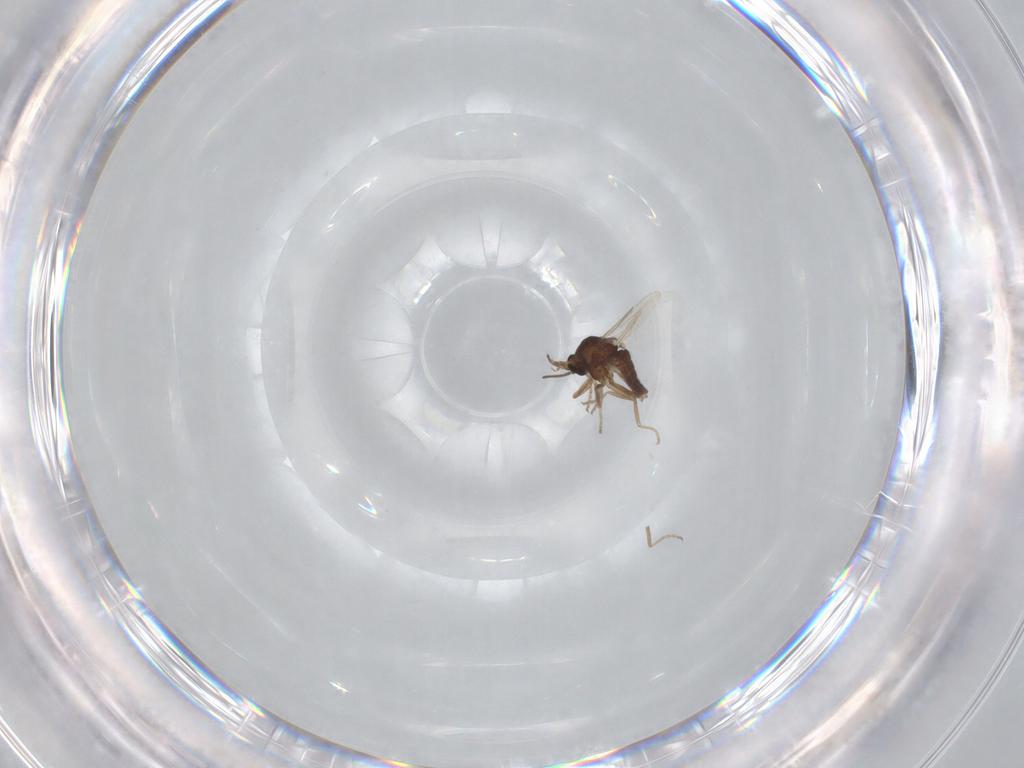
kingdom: Animalia
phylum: Arthropoda
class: Insecta
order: Diptera
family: Ceratopogonidae
